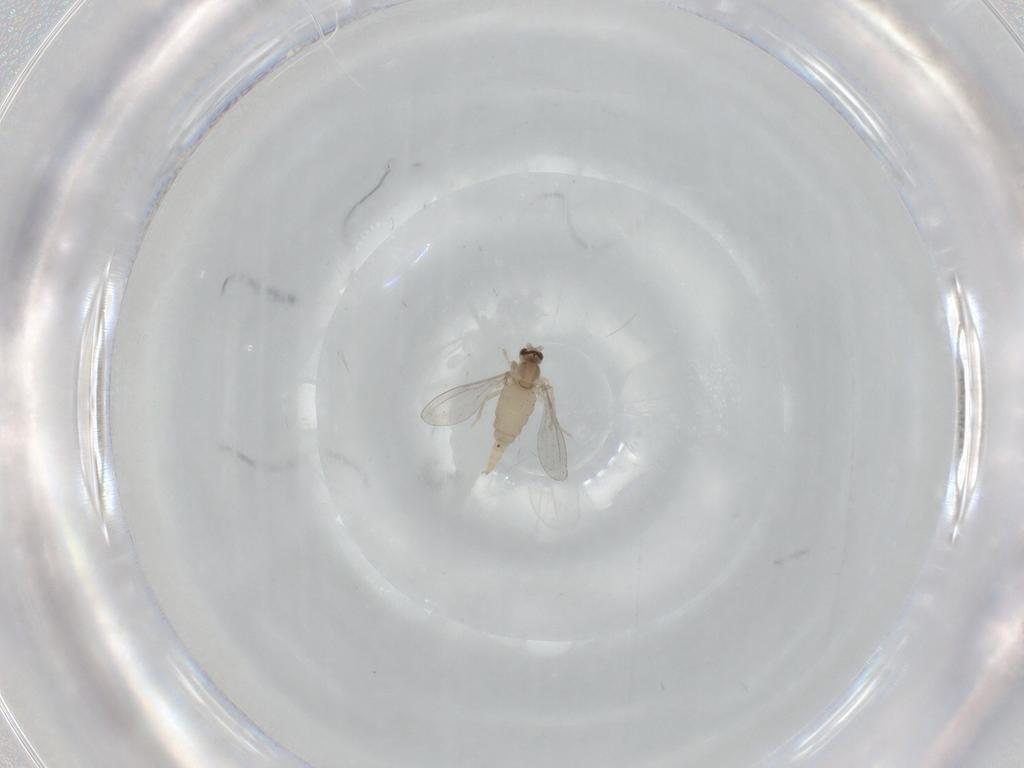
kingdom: Animalia
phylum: Arthropoda
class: Insecta
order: Diptera
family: Cecidomyiidae
